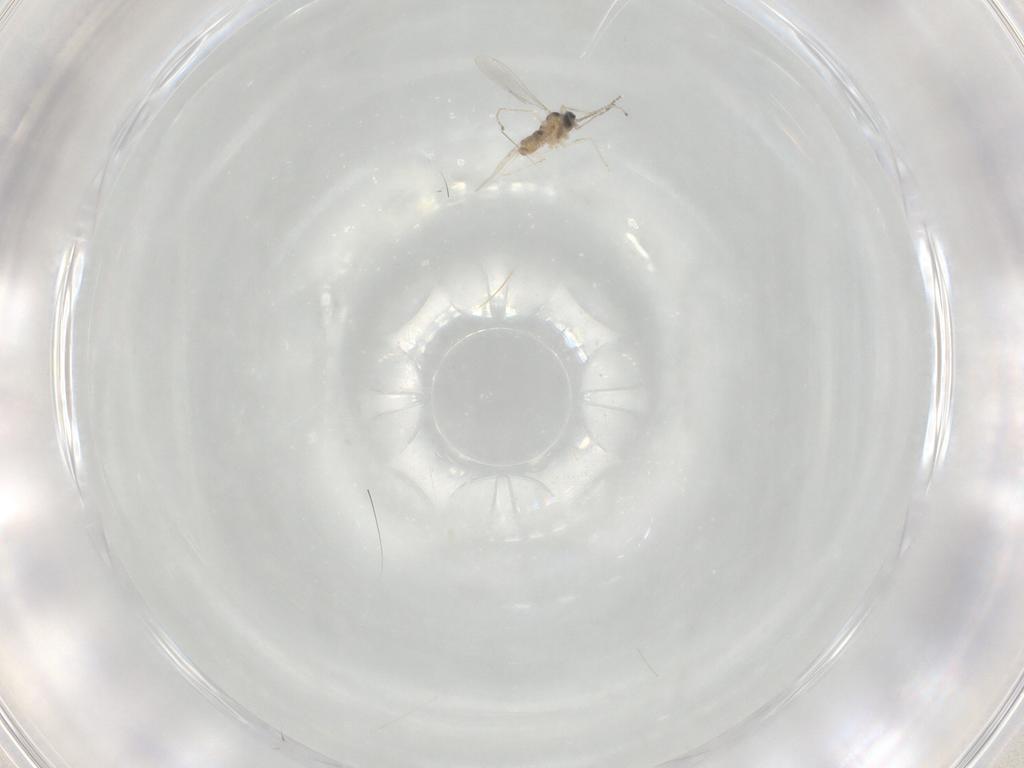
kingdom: Animalia
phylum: Arthropoda
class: Insecta
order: Diptera
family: Cecidomyiidae
